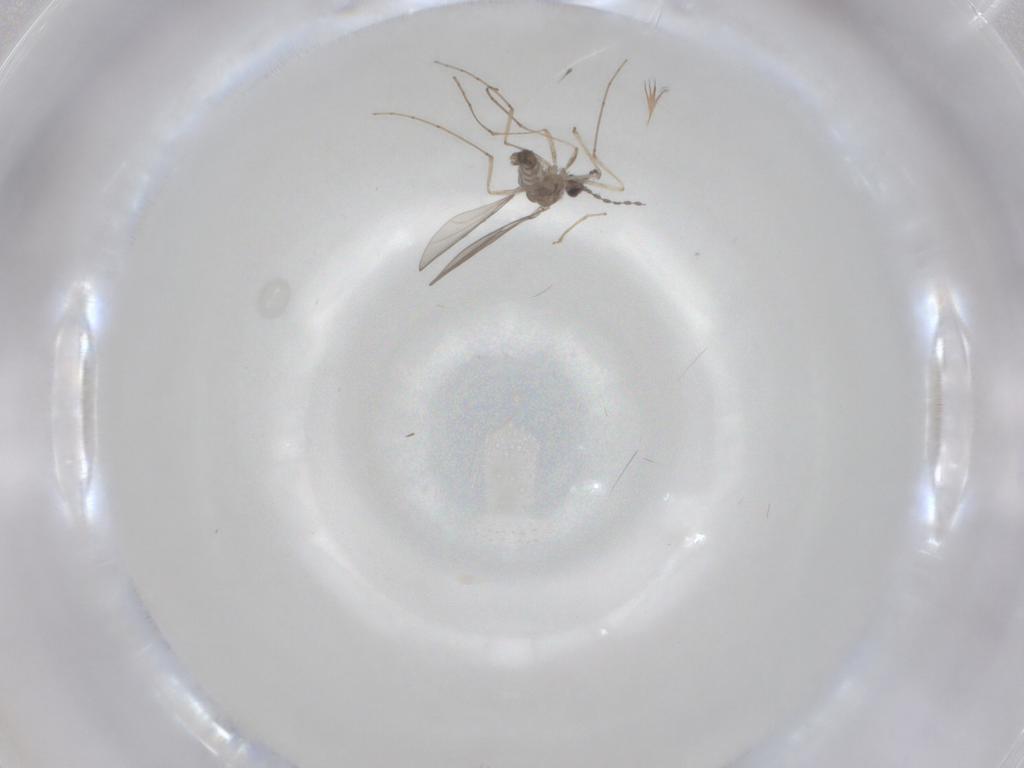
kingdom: Animalia
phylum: Arthropoda
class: Insecta
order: Diptera
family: Cecidomyiidae
